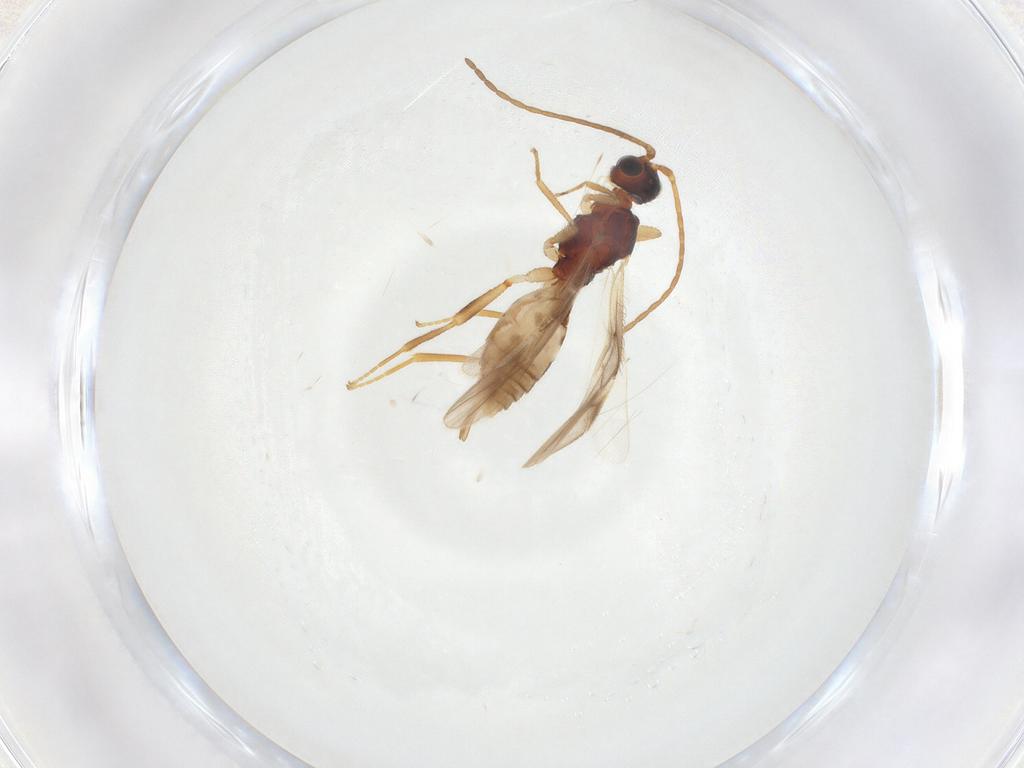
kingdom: Animalia
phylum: Arthropoda
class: Insecta
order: Hymenoptera
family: Braconidae
